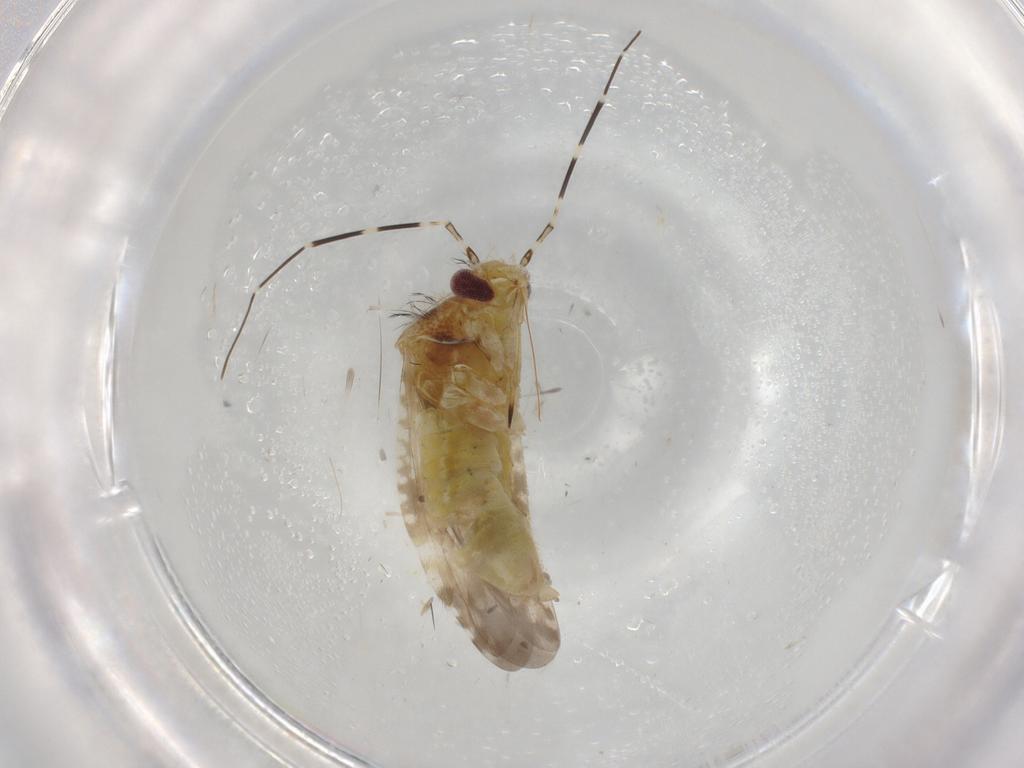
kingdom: Animalia
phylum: Arthropoda
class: Insecta
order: Hemiptera
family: Miridae
